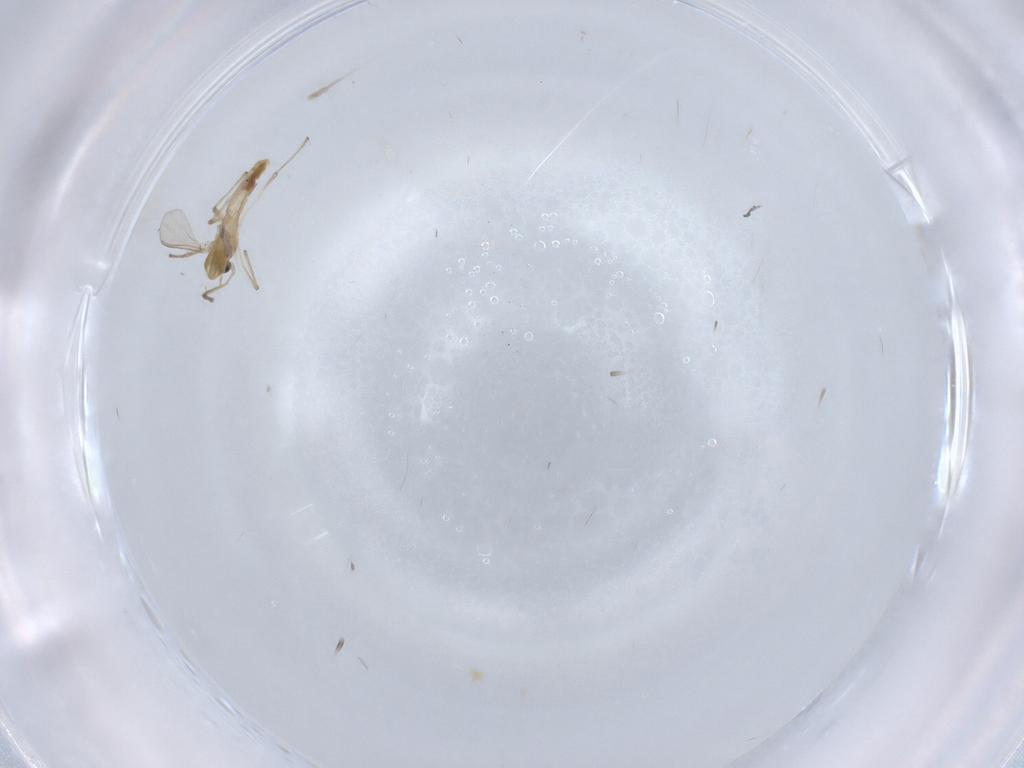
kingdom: Animalia
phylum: Arthropoda
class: Insecta
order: Diptera
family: Chironomidae
